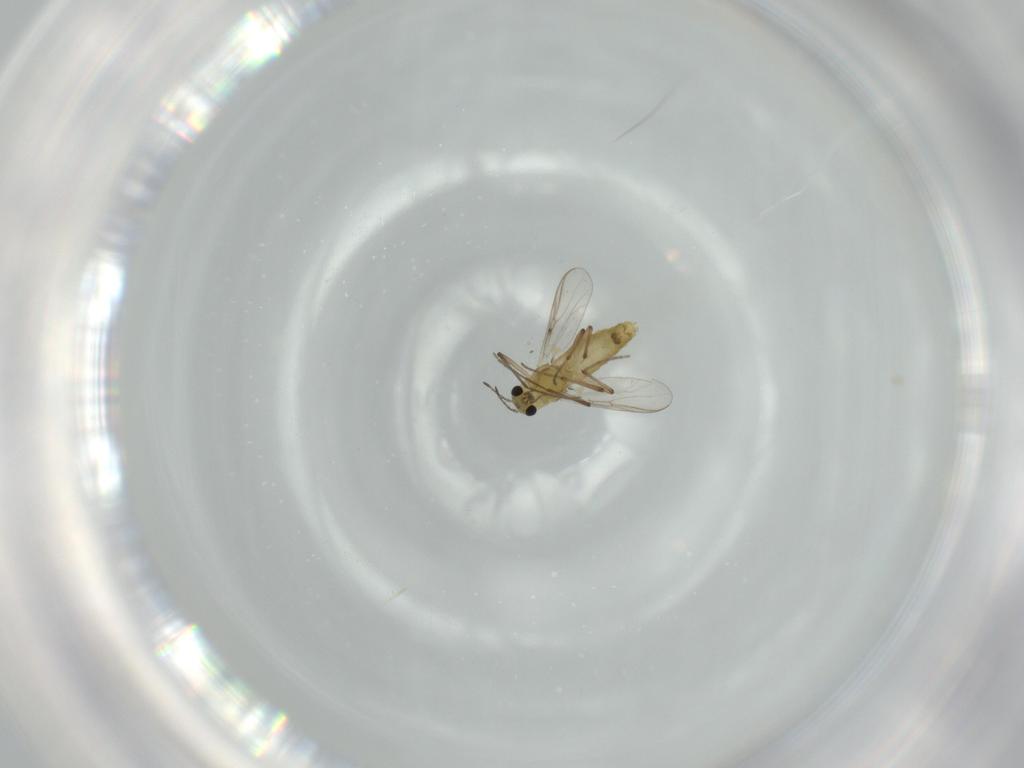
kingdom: Animalia
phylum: Arthropoda
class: Insecta
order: Diptera
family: Chironomidae
